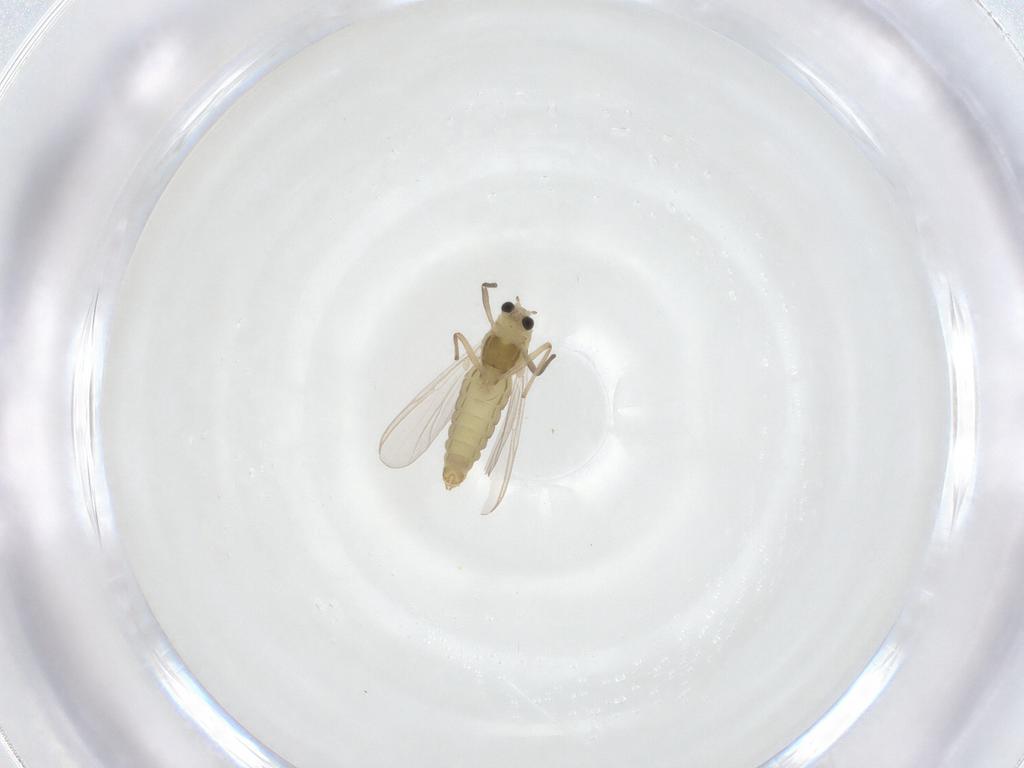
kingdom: Animalia
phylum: Arthropoda
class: Insecta
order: Diptera
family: Chironomidae
